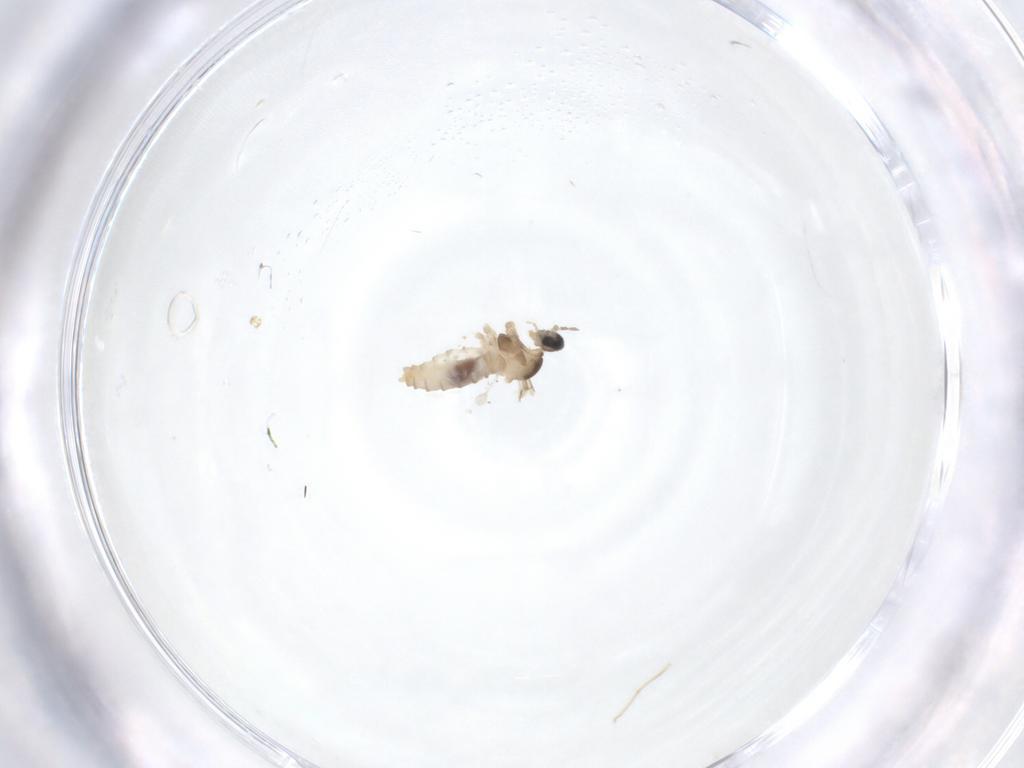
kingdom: Animalia
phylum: Arthropoda
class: Insecta
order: Diptera
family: Cecidomyiidae
